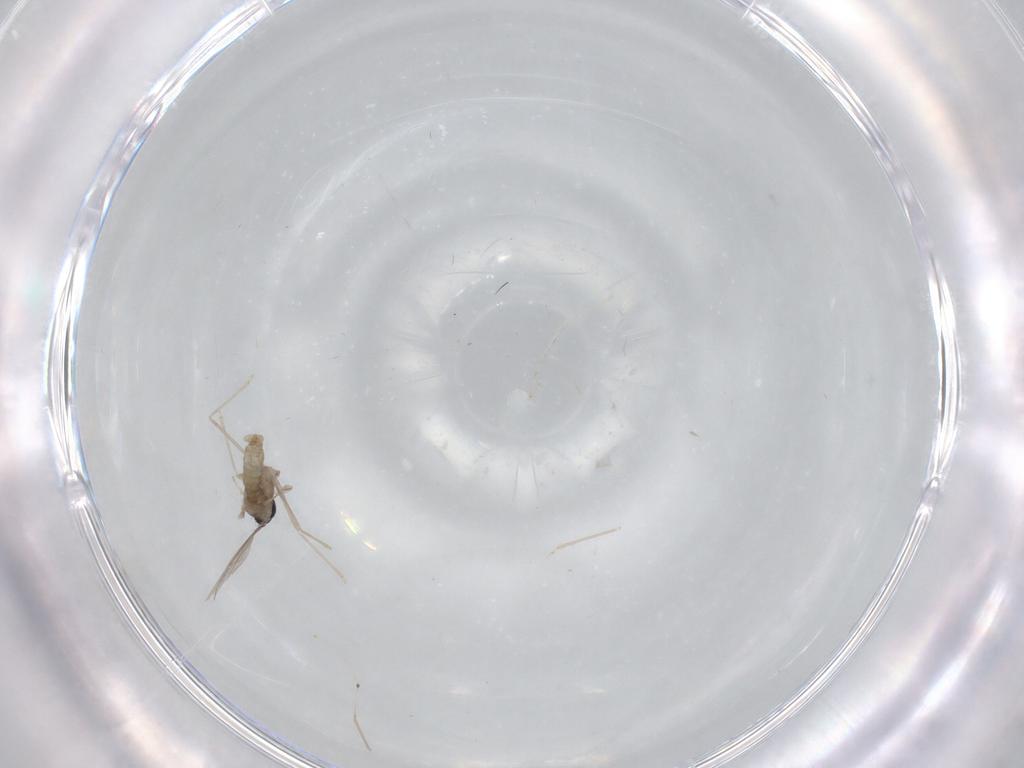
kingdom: Animalia
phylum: Arthropoda
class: Insecta
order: Diptera
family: Cecidomyiidae
